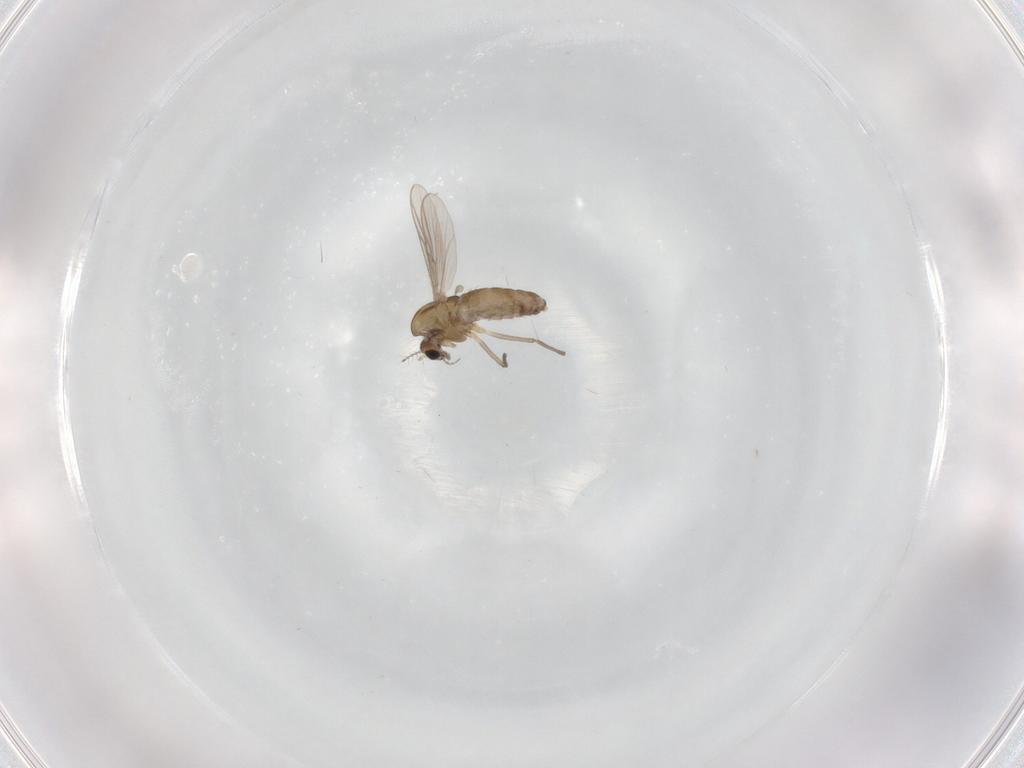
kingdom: Animalia
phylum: Arthropoda
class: Insecta
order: Diptera
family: Chironomidae
